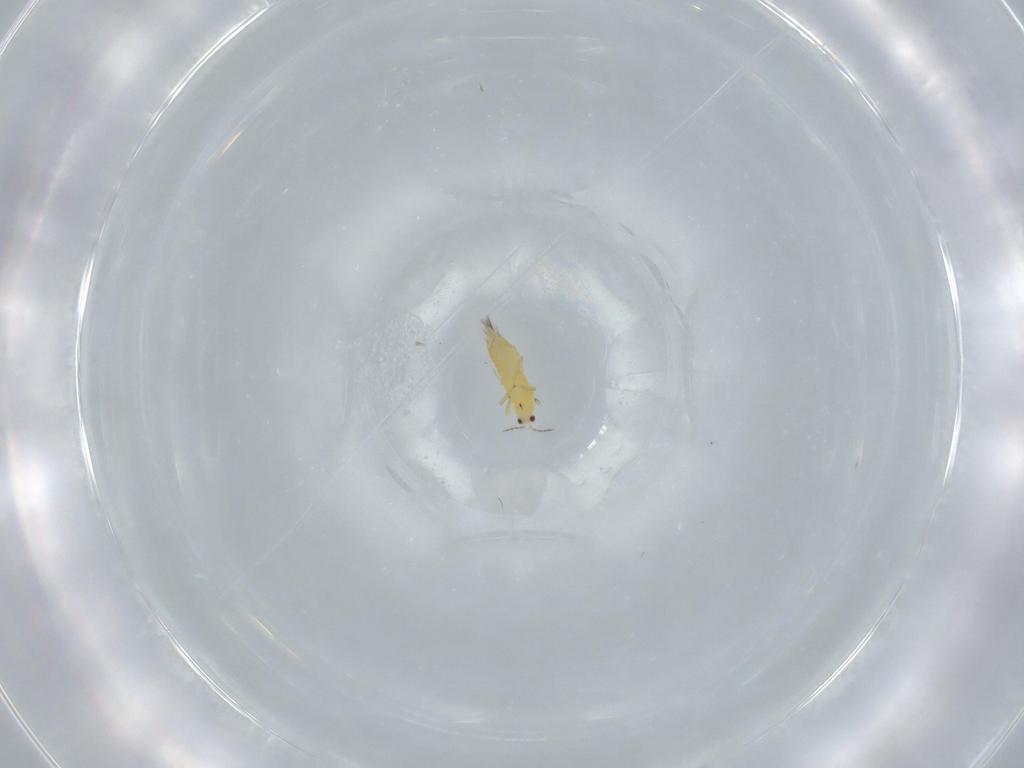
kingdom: Animalia
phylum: Arthropoda
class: Insecta
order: Thysanoptera
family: Thripidae
